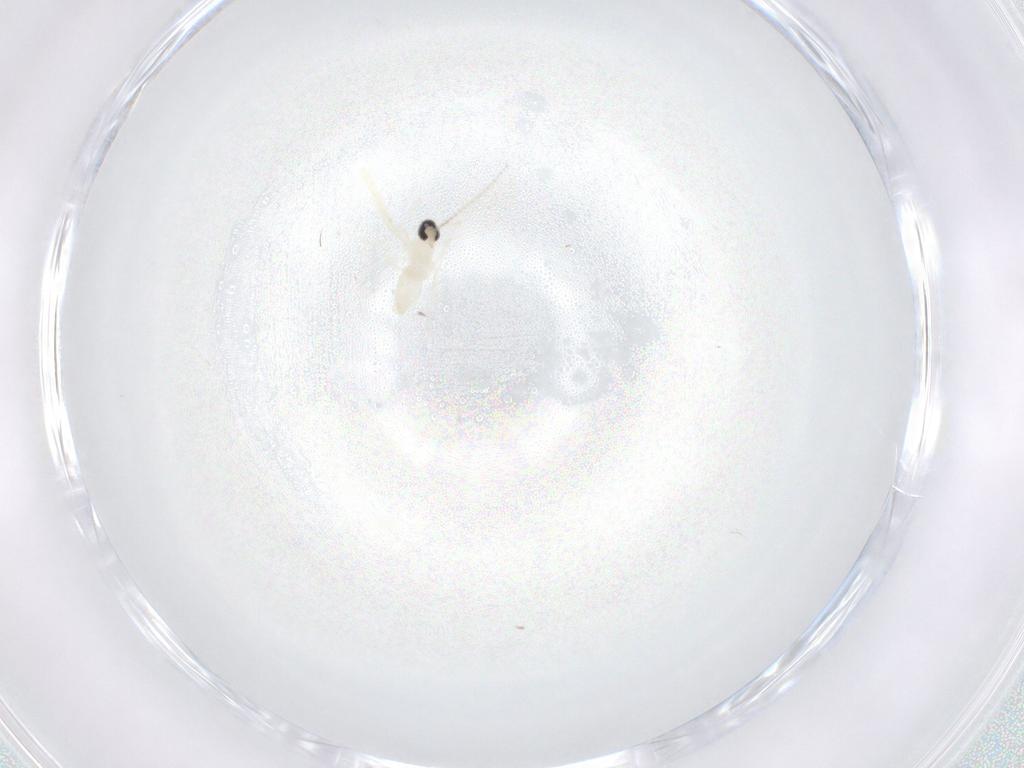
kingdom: Animalia
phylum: Arthropoda
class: Insecta
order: Diptera
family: Cecidomyiidae
